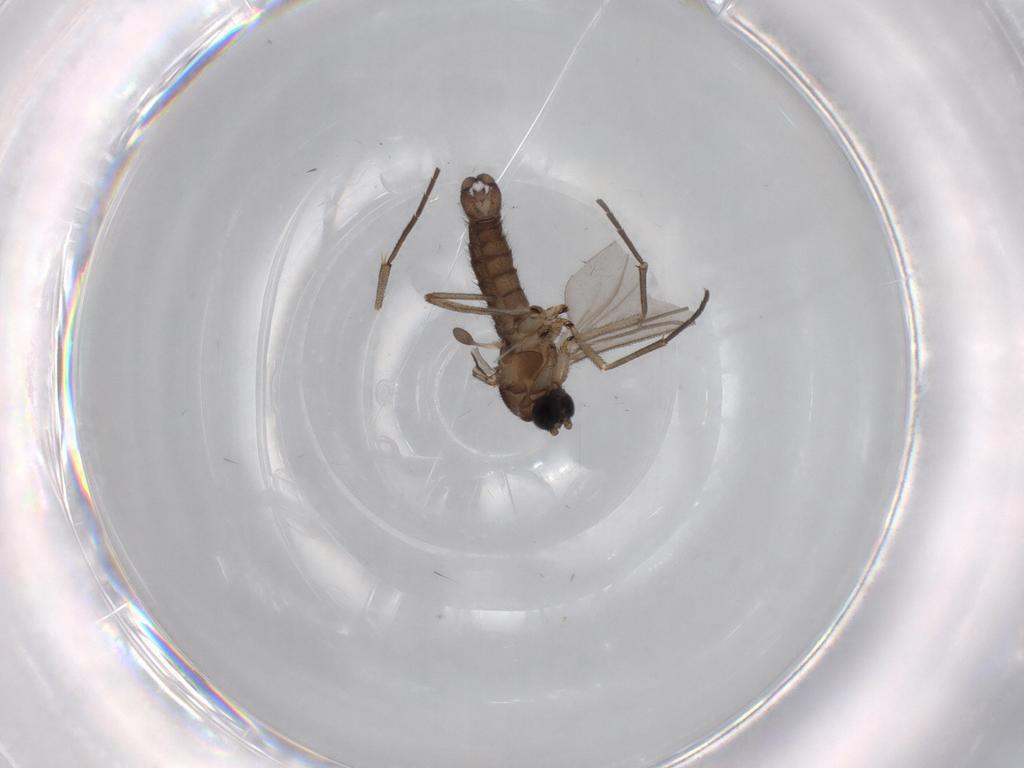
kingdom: Animalia
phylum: Arthropoda
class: Insecta
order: Diptera
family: Cecidomyiidae
